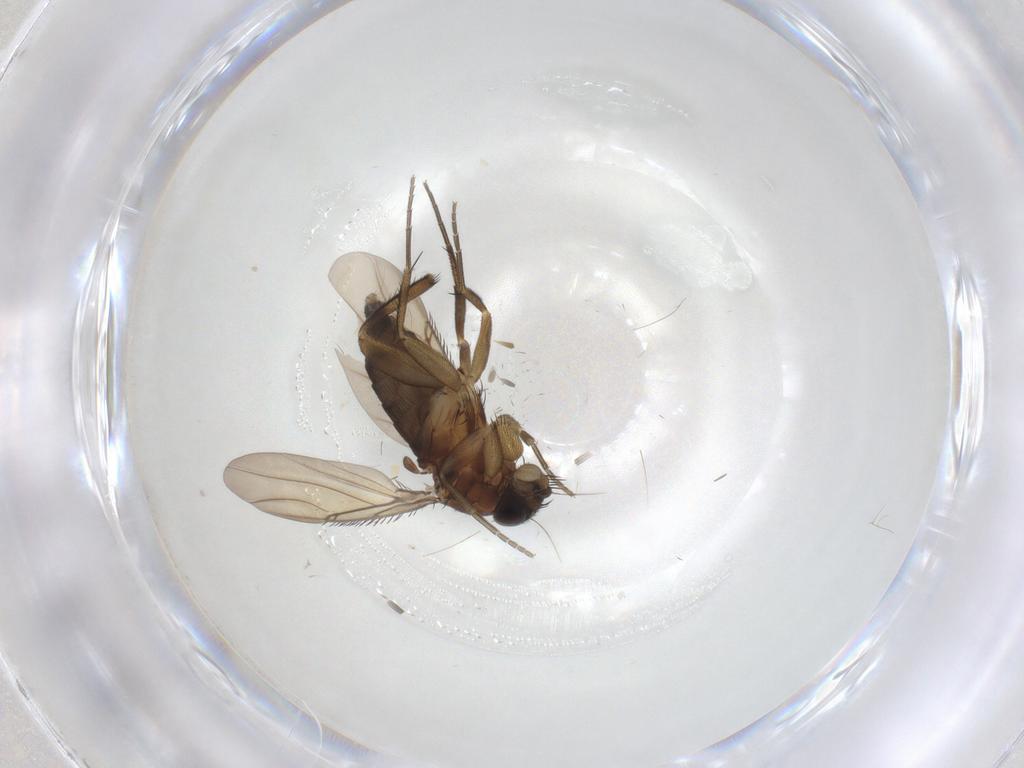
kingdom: Animalia
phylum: Arthropoda
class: Insecta
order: Diptera
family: Phoridae
